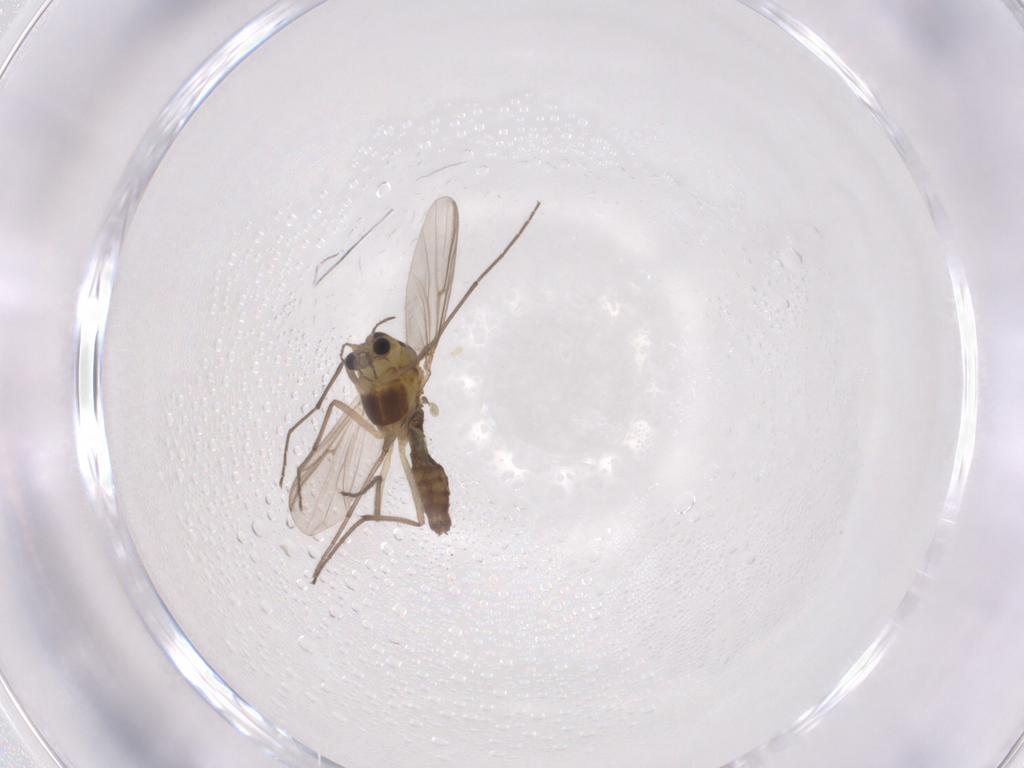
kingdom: Animalia
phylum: Arthropoda
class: Insecta
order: Diptera
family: Chironomidae
